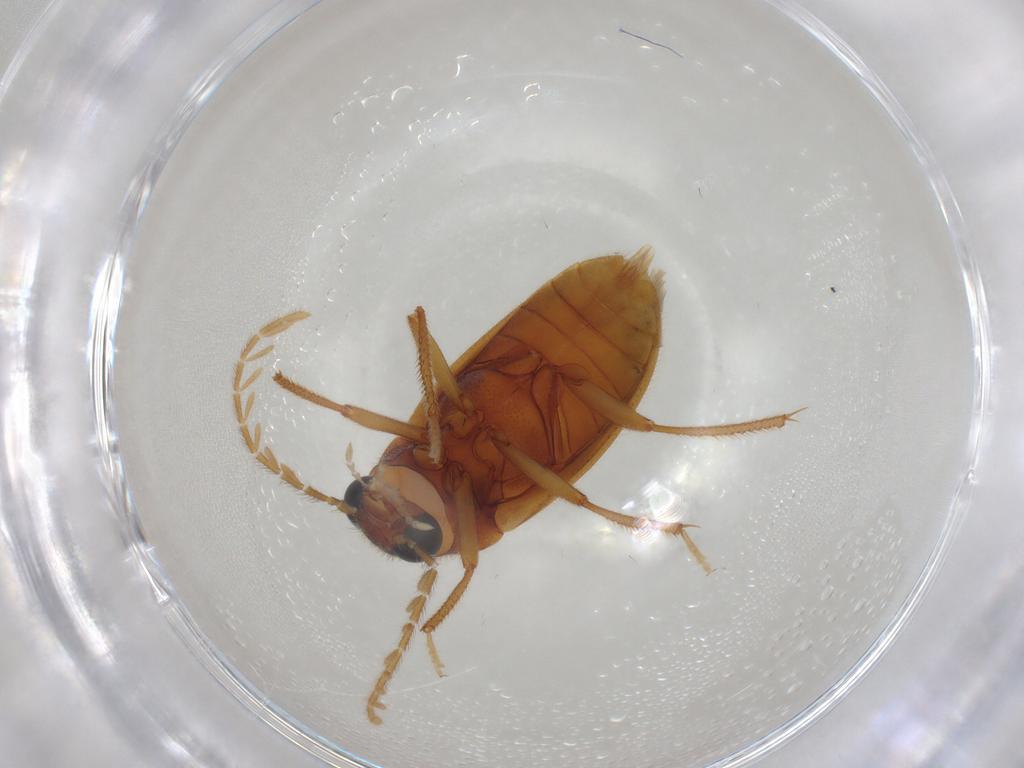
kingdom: Animalia
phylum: Arthropoda
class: Insecta
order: Coleoptera
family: Ptilodactylidae
